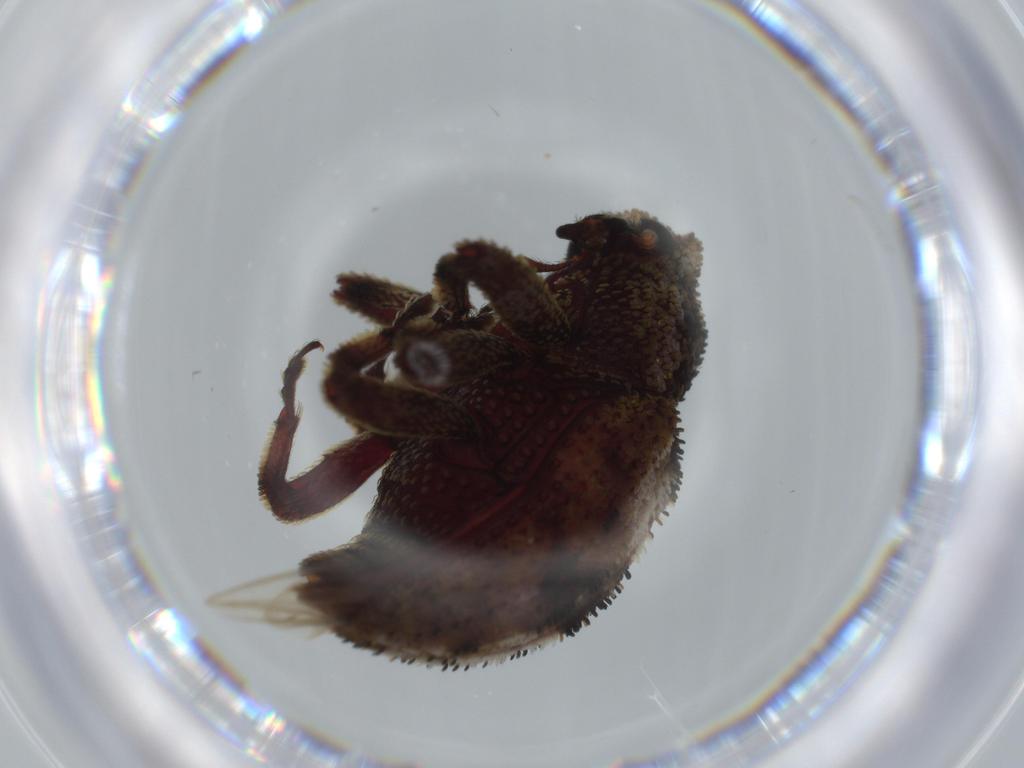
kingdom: Animalia
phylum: Arthropoda
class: Insecta
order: Coleoptera
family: Curculionidae
